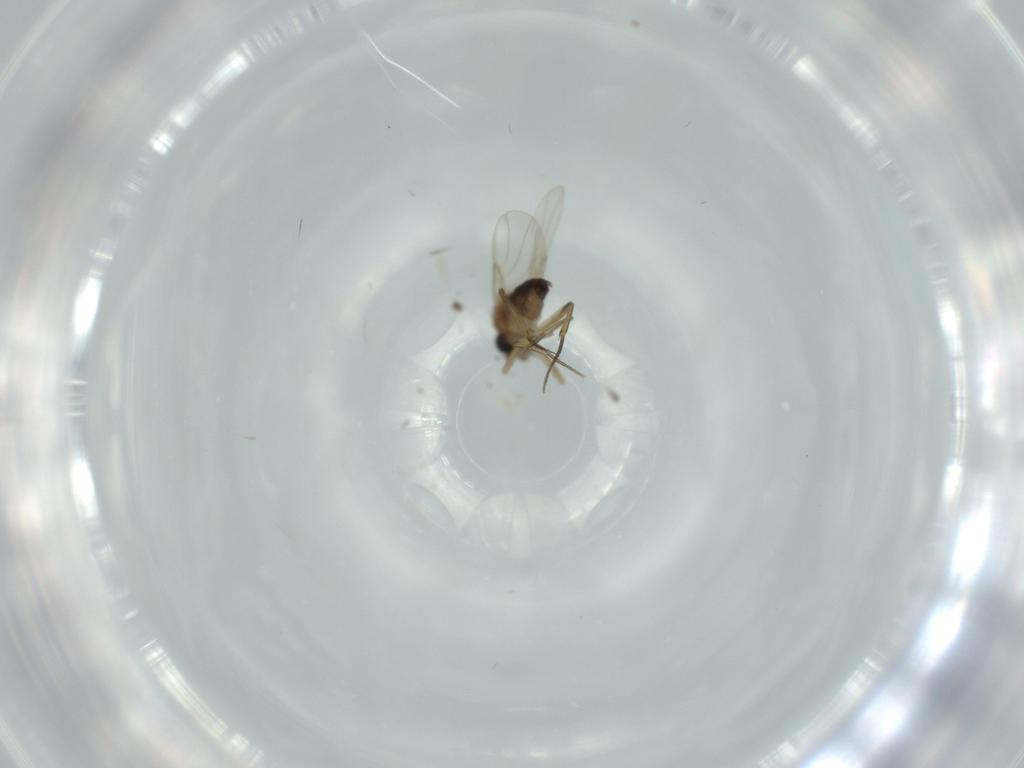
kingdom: Animalia
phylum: Arthropoda
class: Insecta
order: Diptera
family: Phoridae
